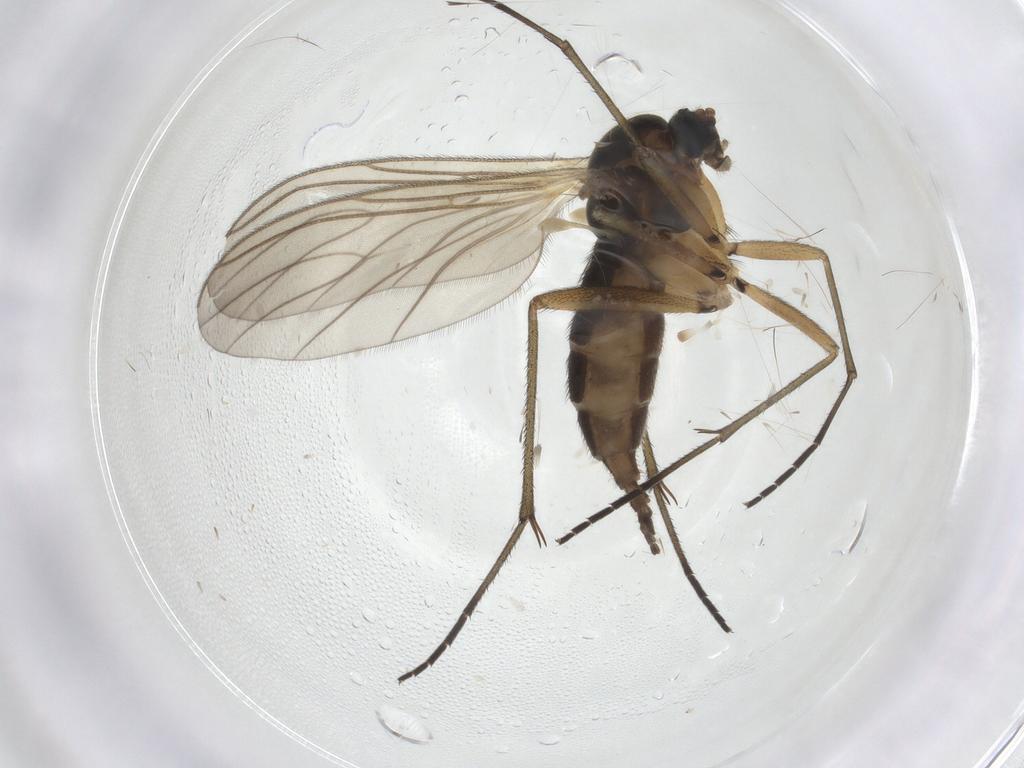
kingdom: Animalia
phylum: Arthropoda
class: Insecta
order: Diptera
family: Sciaridae
